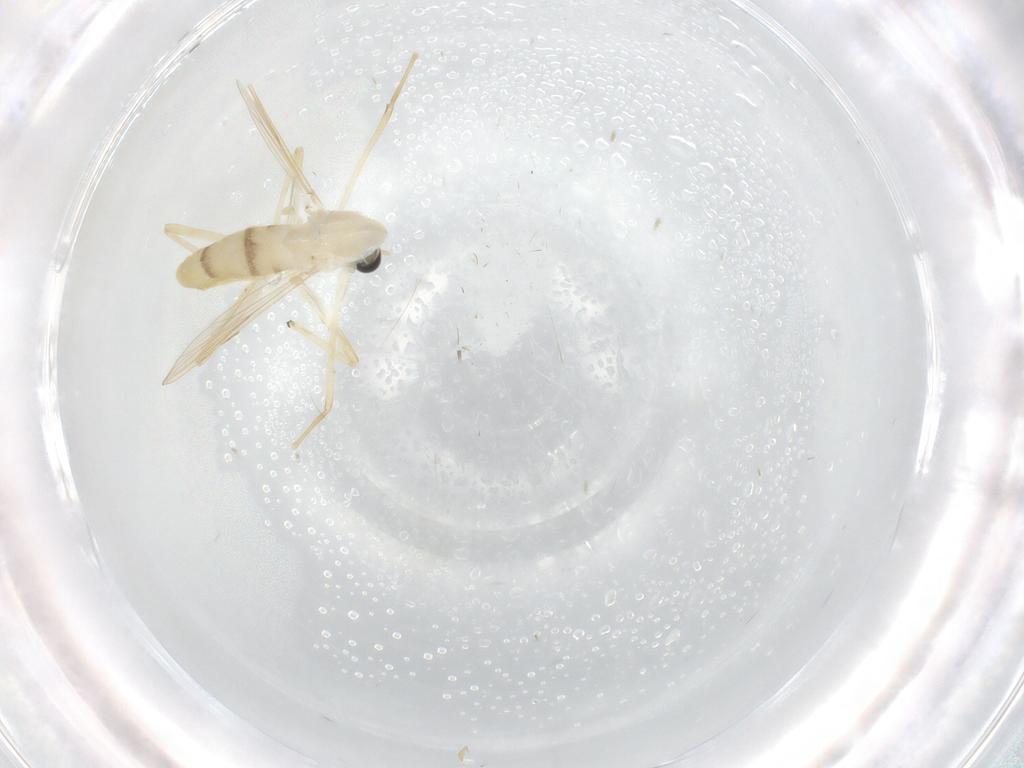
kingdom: Animalia
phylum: Arthropoda
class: Insecta
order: Diptera
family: Chironomidae
